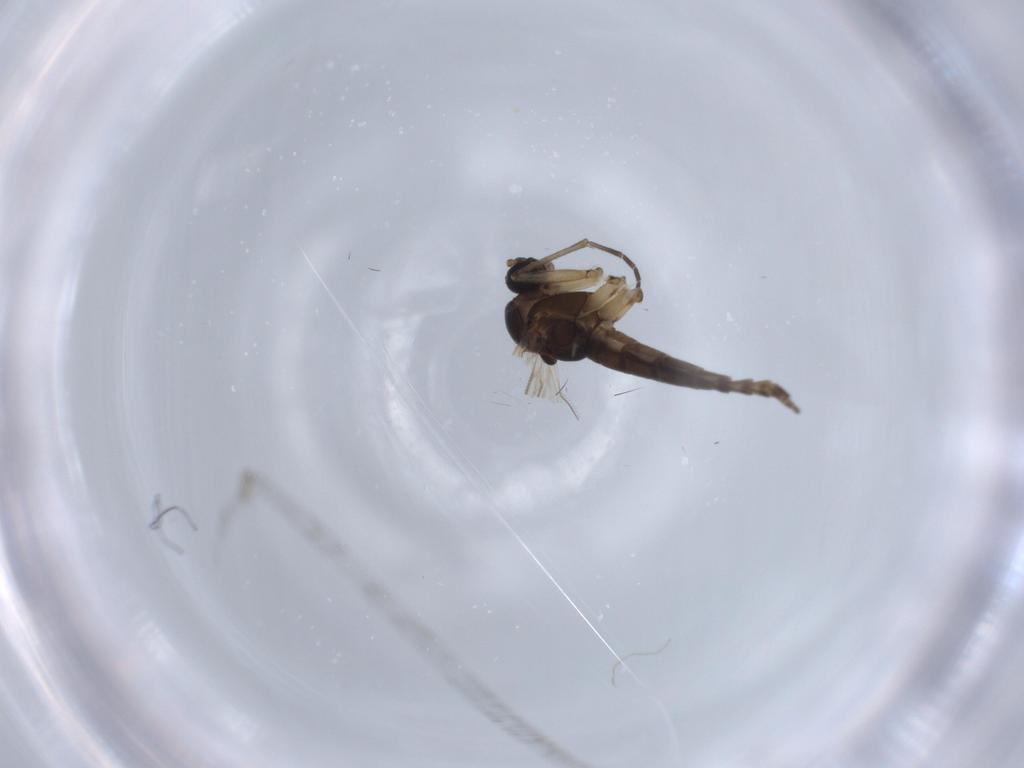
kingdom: Animalia
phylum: Arthropoda
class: Insecta
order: Diptera
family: Sciaridae
